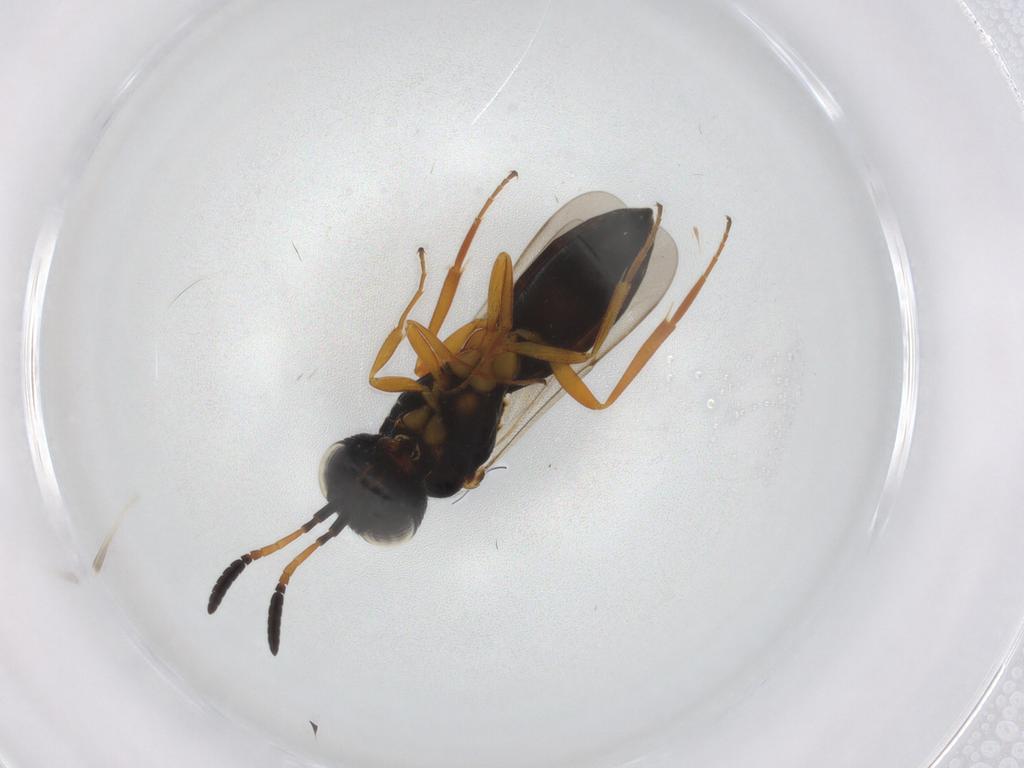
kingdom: Animalia
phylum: Arthropoda
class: Insecta
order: Hymenoptera
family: Scelionidae
